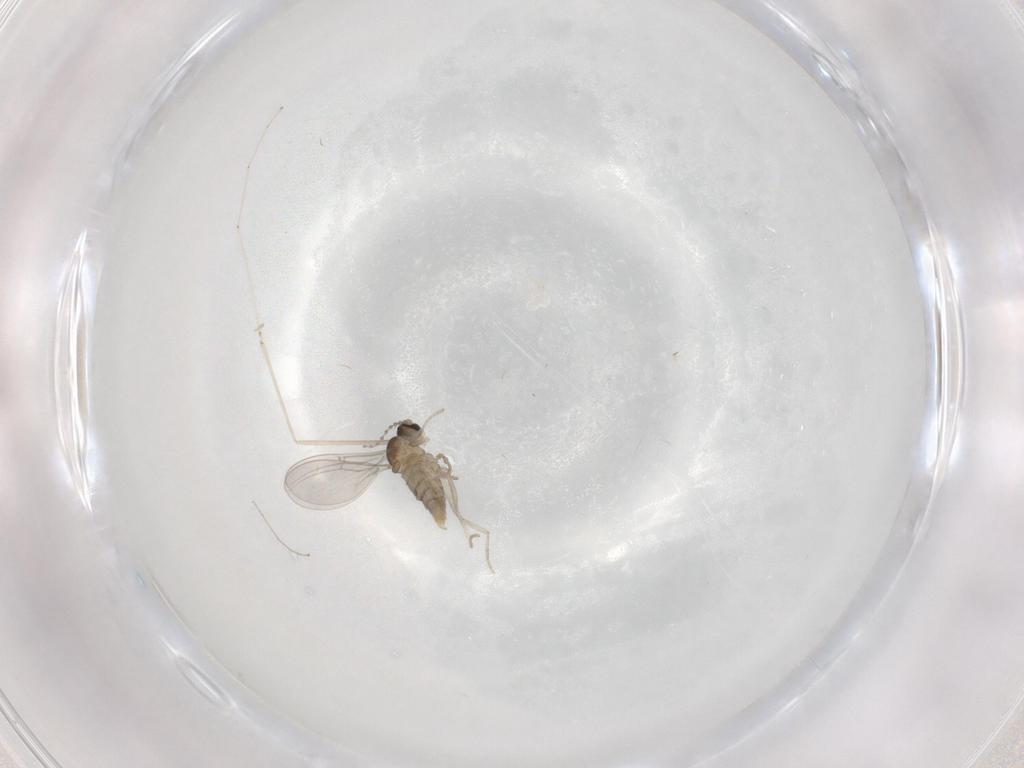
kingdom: Animalia
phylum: Arthropoda
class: Insecta
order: Diptera
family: Cecidomyiidae
